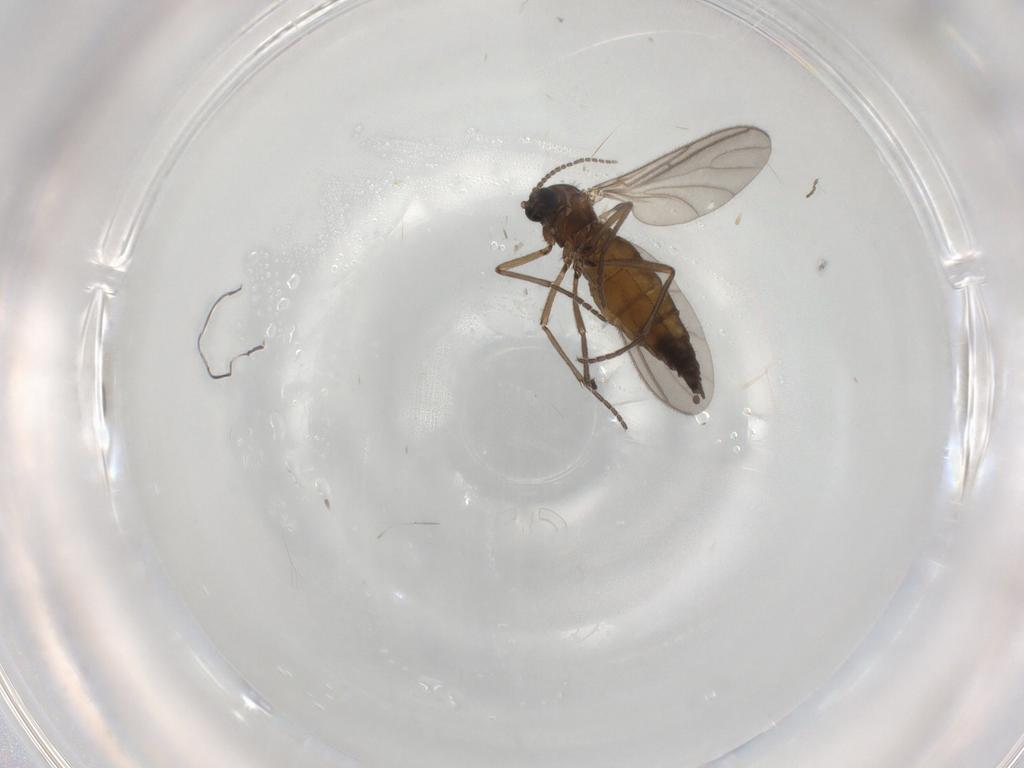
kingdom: Animalia
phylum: Arthropoda
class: Insecta
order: Diptera
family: Sciaridae
